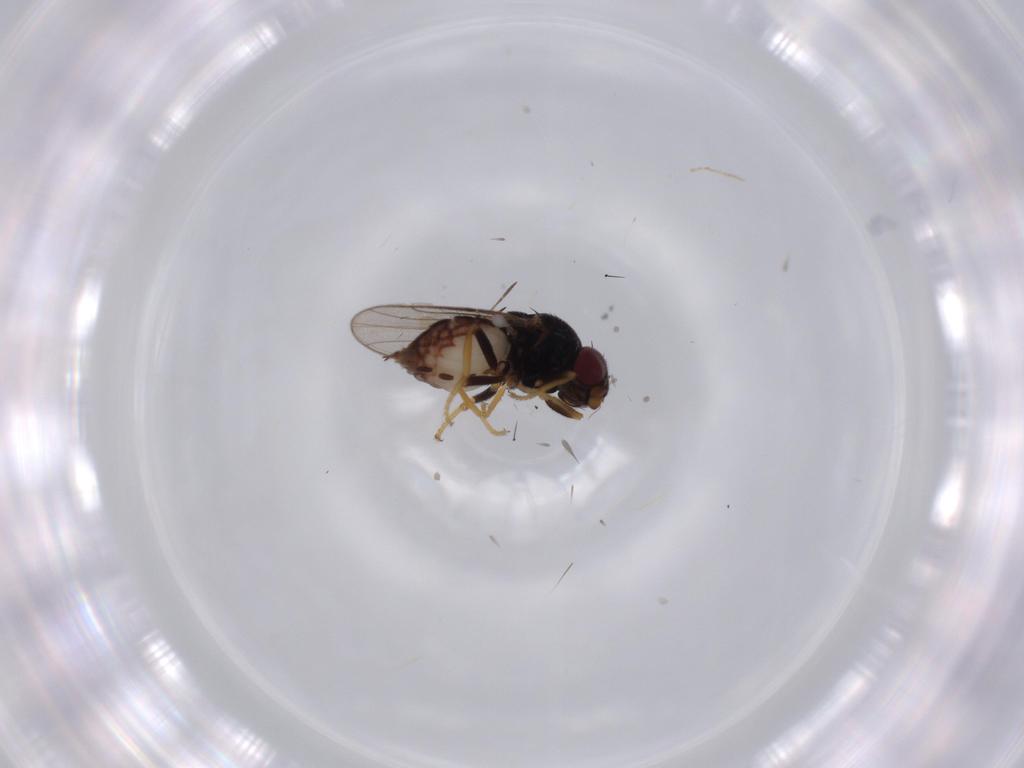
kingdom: Animalia
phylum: Arthropoda
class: Insecta
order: Diptera
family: Chloropidae
